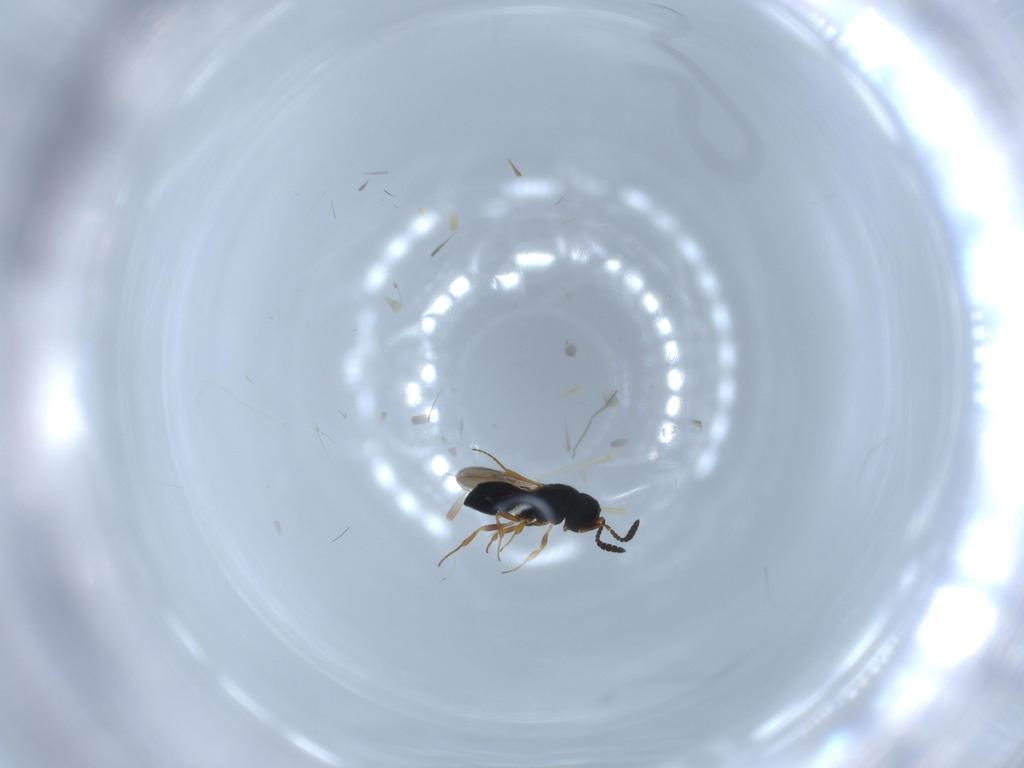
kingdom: Animalia
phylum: Arthropoda
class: Insecta
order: Hymenoptera
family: Scelionidae
